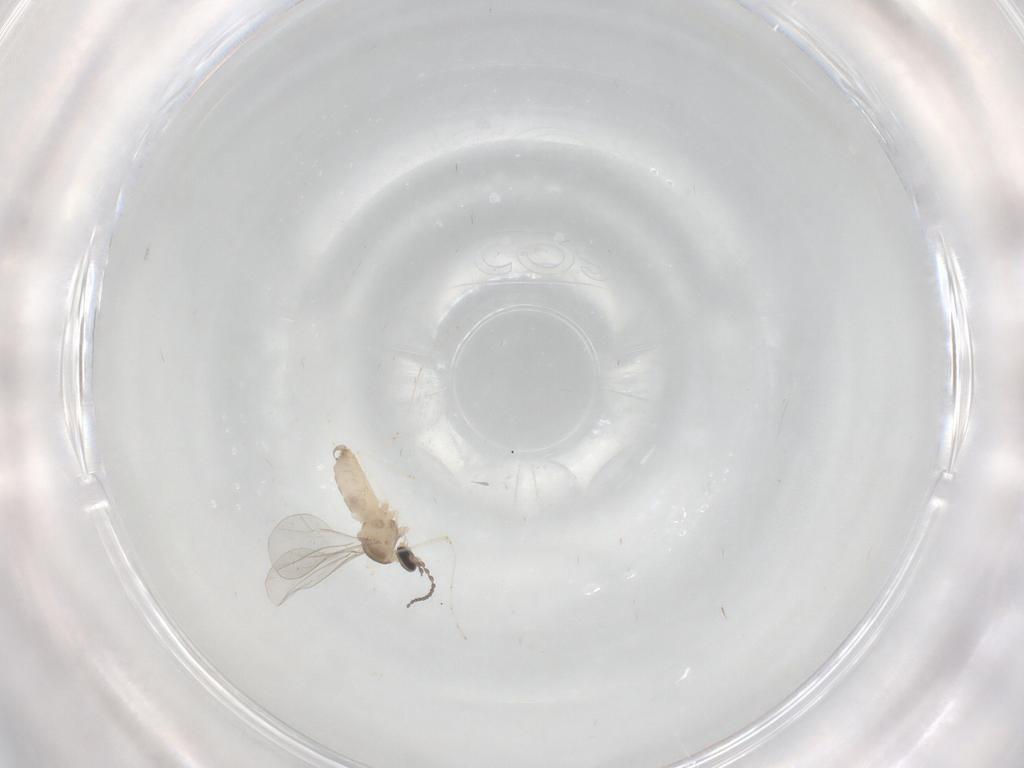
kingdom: Animalia
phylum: Arthropoda
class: Insecta
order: Diptera
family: Cecidomyiidae
